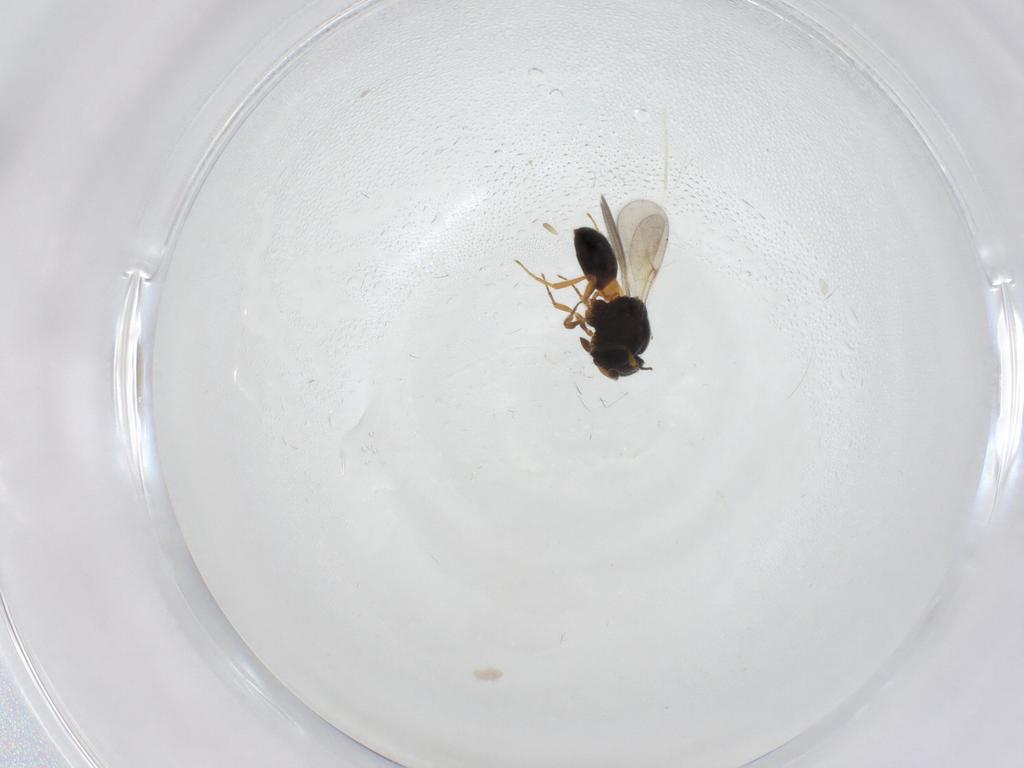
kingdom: Animalia
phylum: Arthropoda
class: Insecta
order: Hymenoptera
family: Scelionidae
